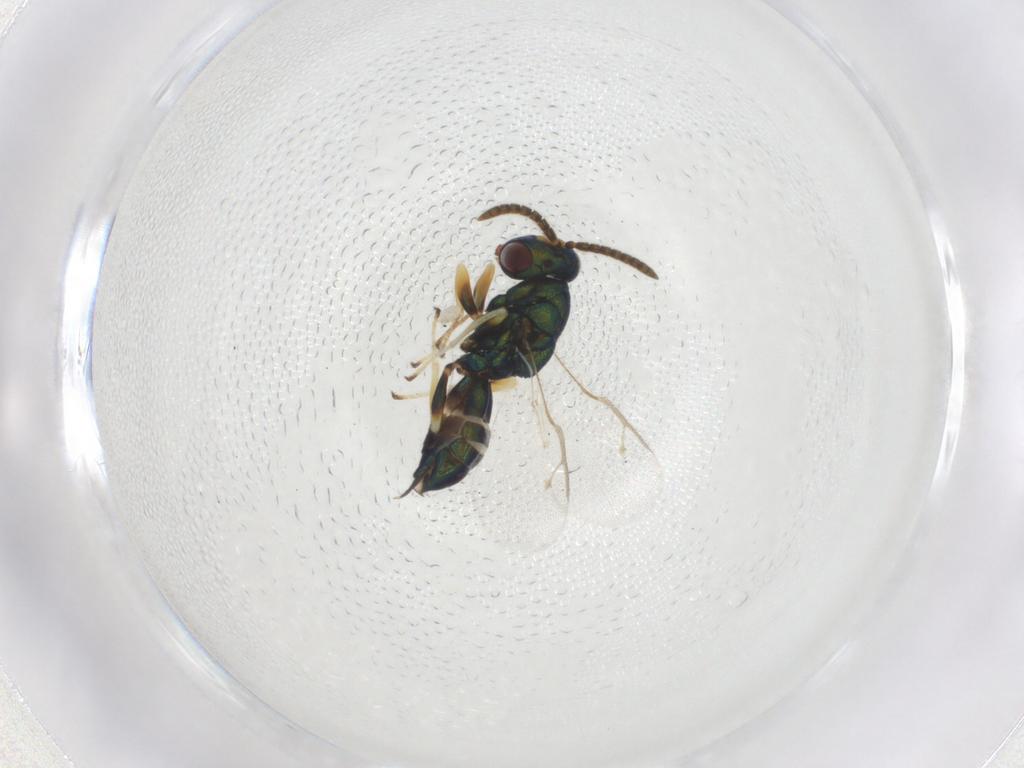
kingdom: Animalia
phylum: Arthropoda
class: Insecta
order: Hymenoptera
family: Pteromalidae
